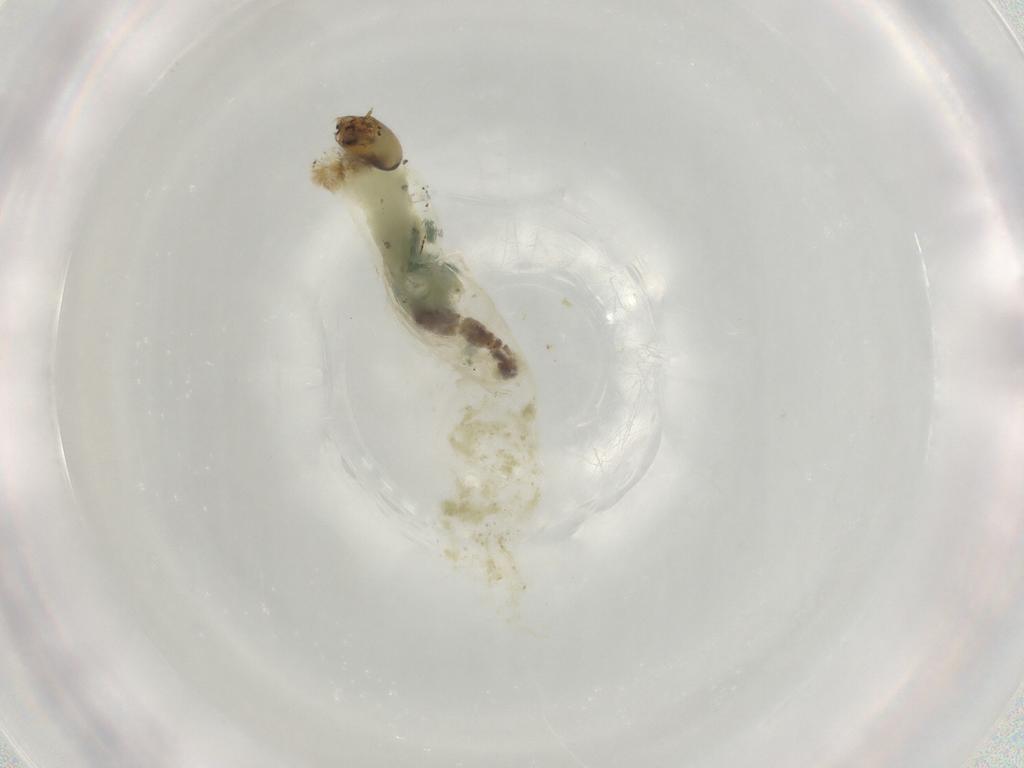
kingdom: Animalia
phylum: Arthropoda
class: Insecta
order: Diptera
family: Chironomidae
